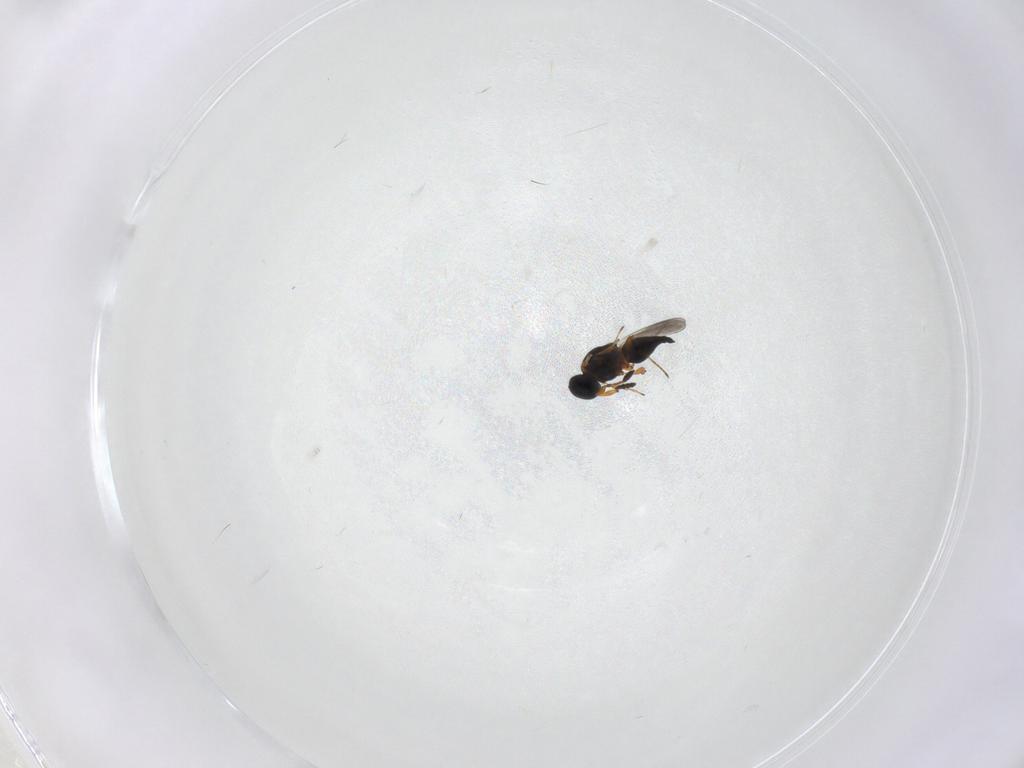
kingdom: Animalia
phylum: Arthropoda
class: Insecta
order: Hymenoptera
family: Platygastridae
